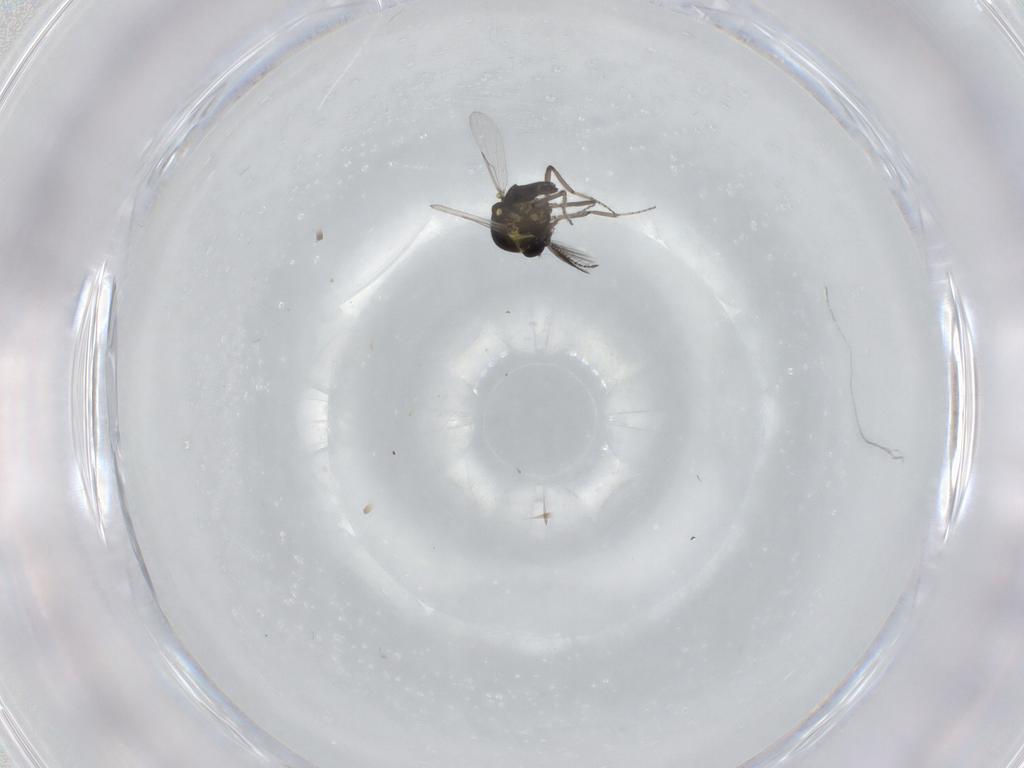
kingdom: Animalia
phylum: Arthropoda
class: Insecta
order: Diptera
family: Ceratopogonidae
